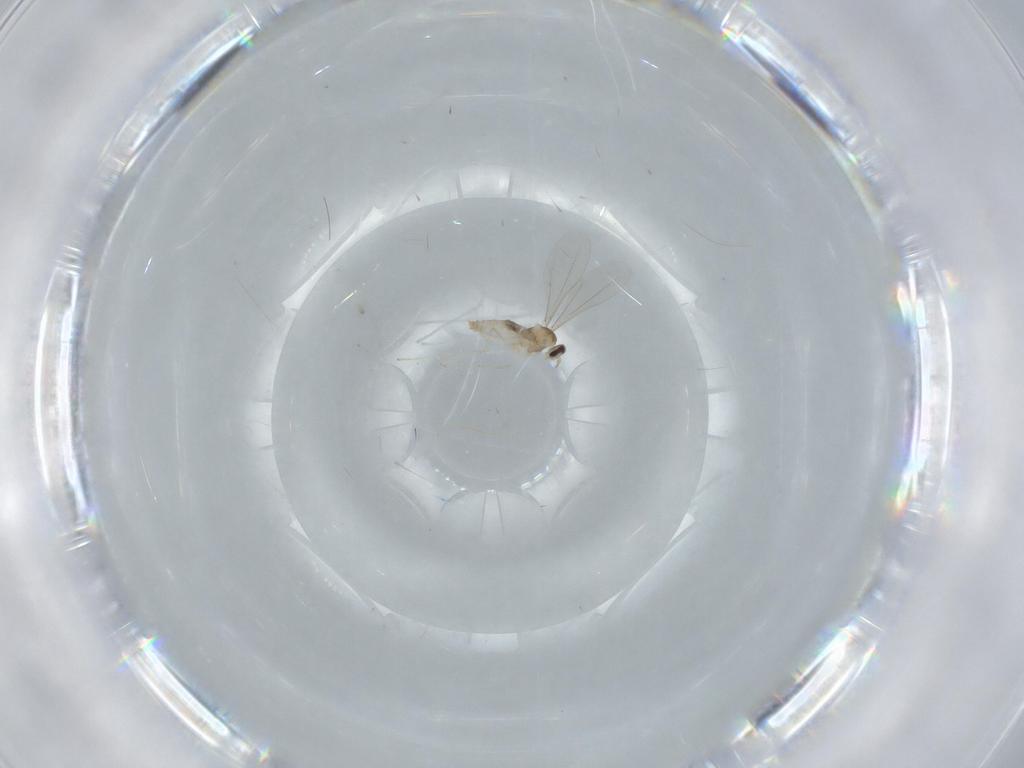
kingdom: Animalia
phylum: Arthropoda
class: Insecta
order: Diptera
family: Cecidomyiidae
